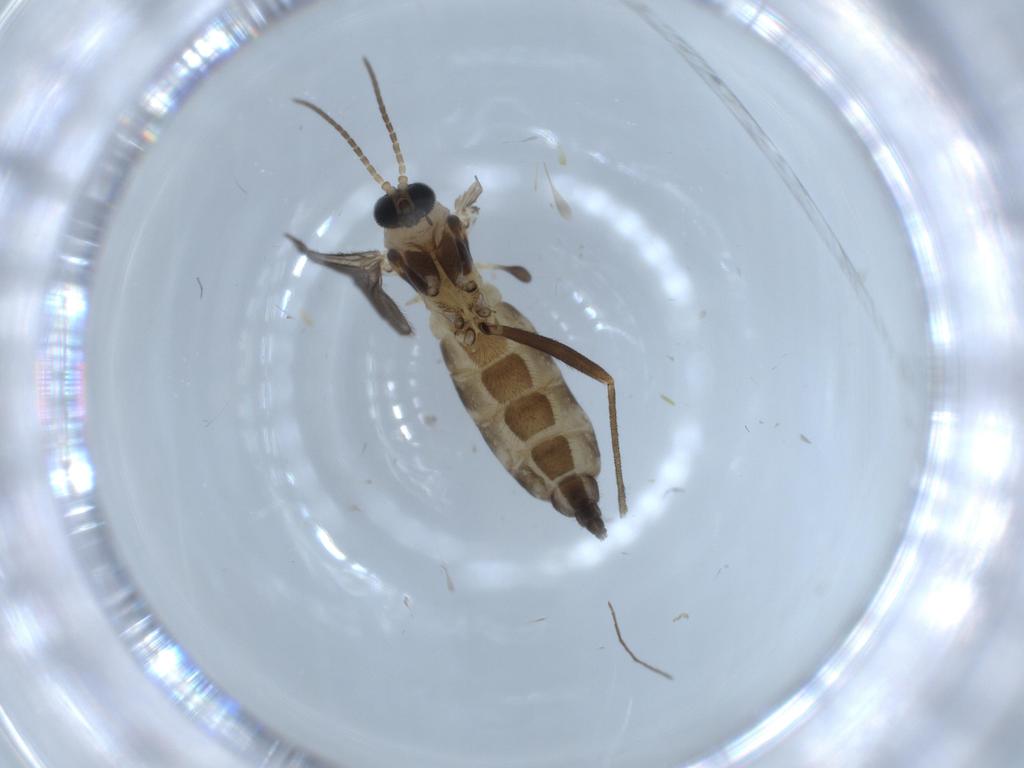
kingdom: Animalia
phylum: Arthropoda
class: Insecta
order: Diptera
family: Sciaridae
